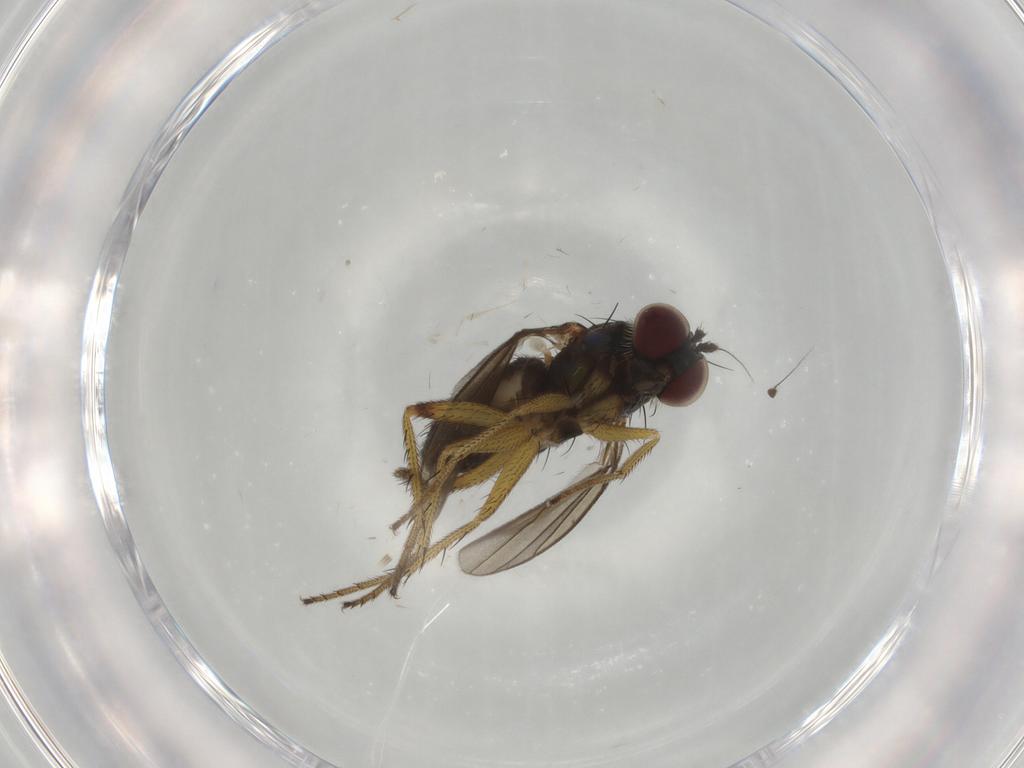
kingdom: Animalia
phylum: Arthropoda
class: Insecta
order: Diptera
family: Dolichopodidae
